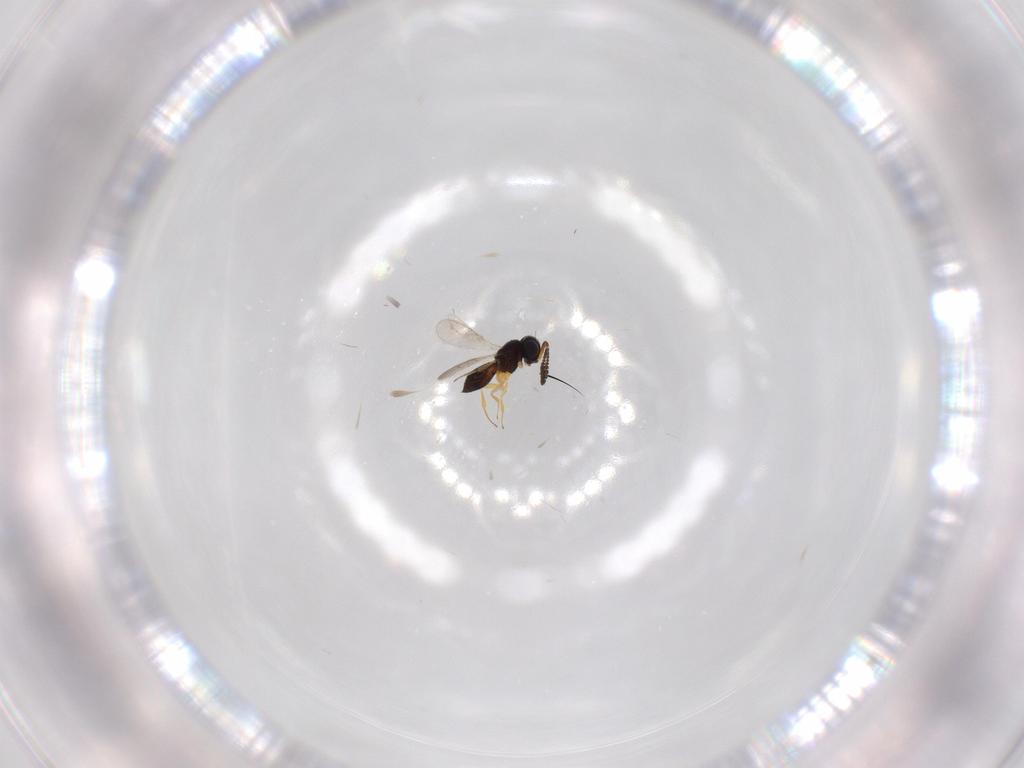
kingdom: Animalia
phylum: Arthropoda
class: Insecta
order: Hymenoptera
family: Scelionidae
